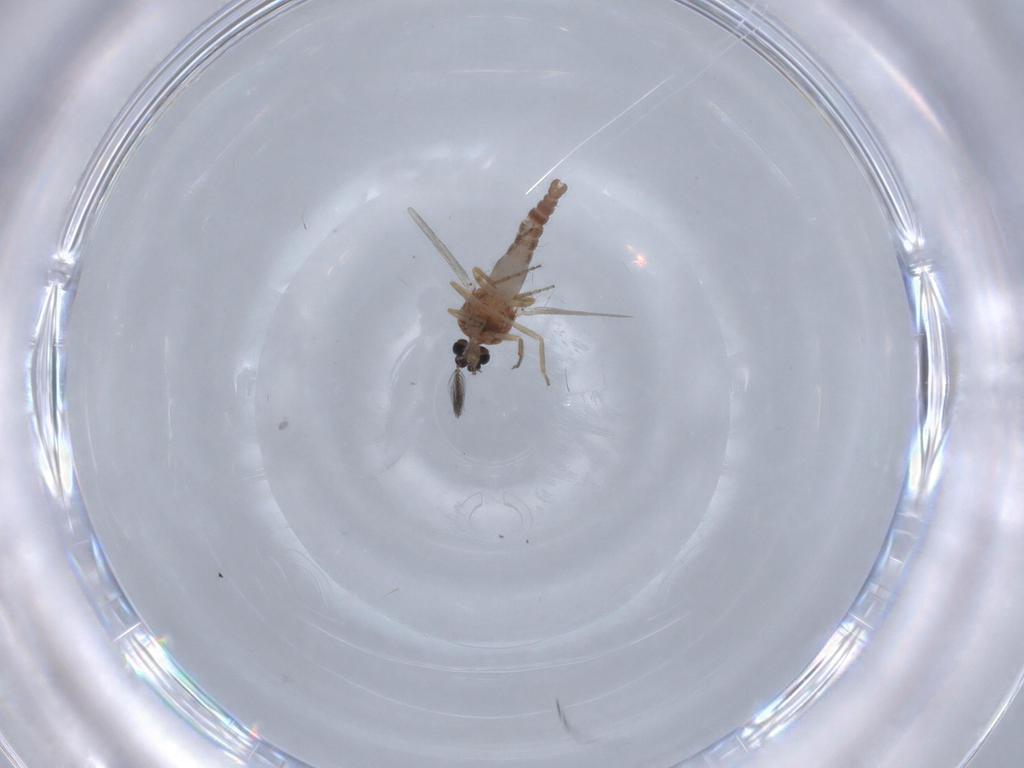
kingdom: Animalia
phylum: Arthropoda
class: Insecta
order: Diptera
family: Ceratopogonidae
